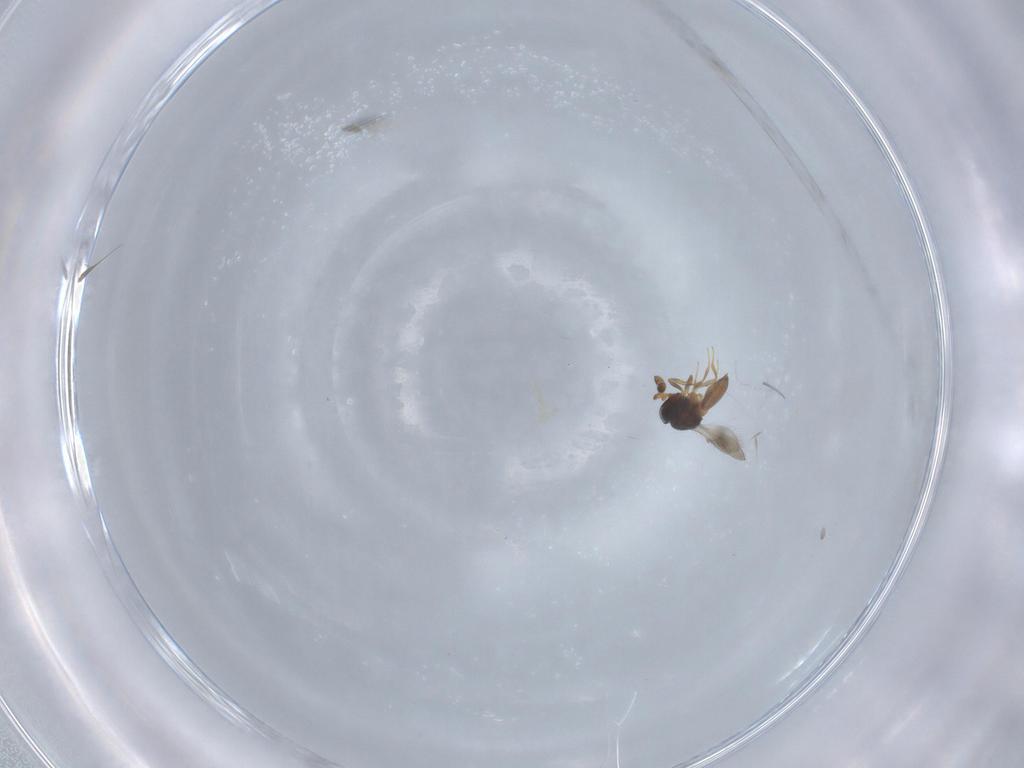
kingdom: Animalia
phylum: Arthropoda
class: Insecta
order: Hymenoptera
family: Scelionidae
